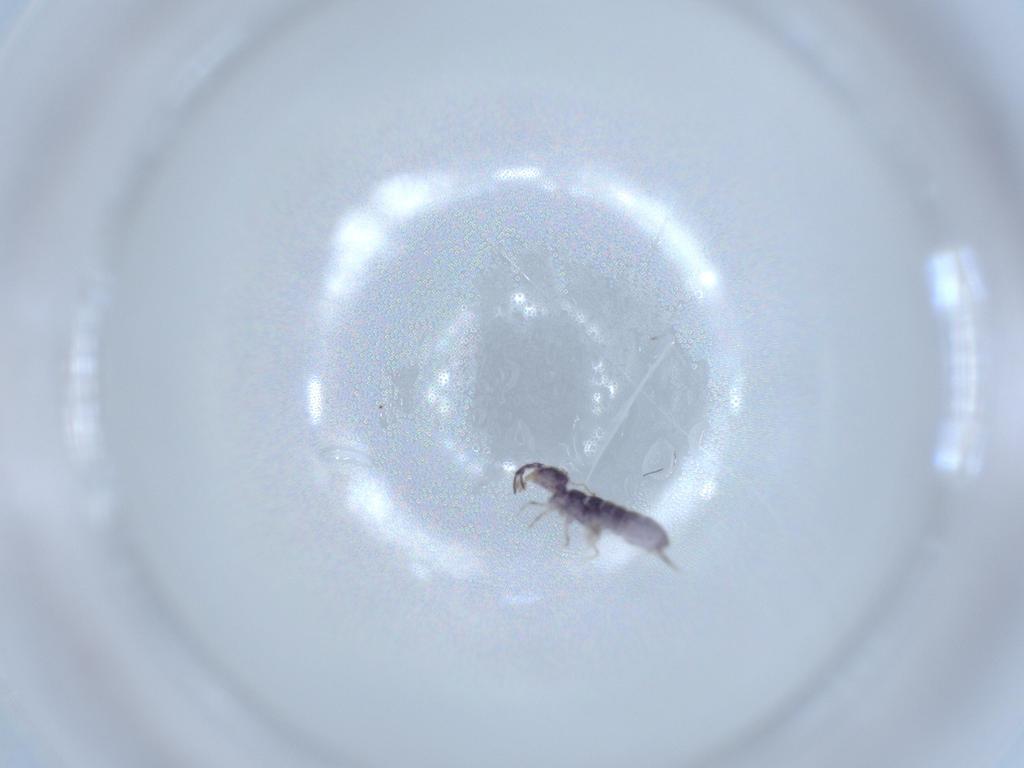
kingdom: Animalia
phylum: Arthropoda
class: Collembola
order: Entomobryomorpha
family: Isotomidae
